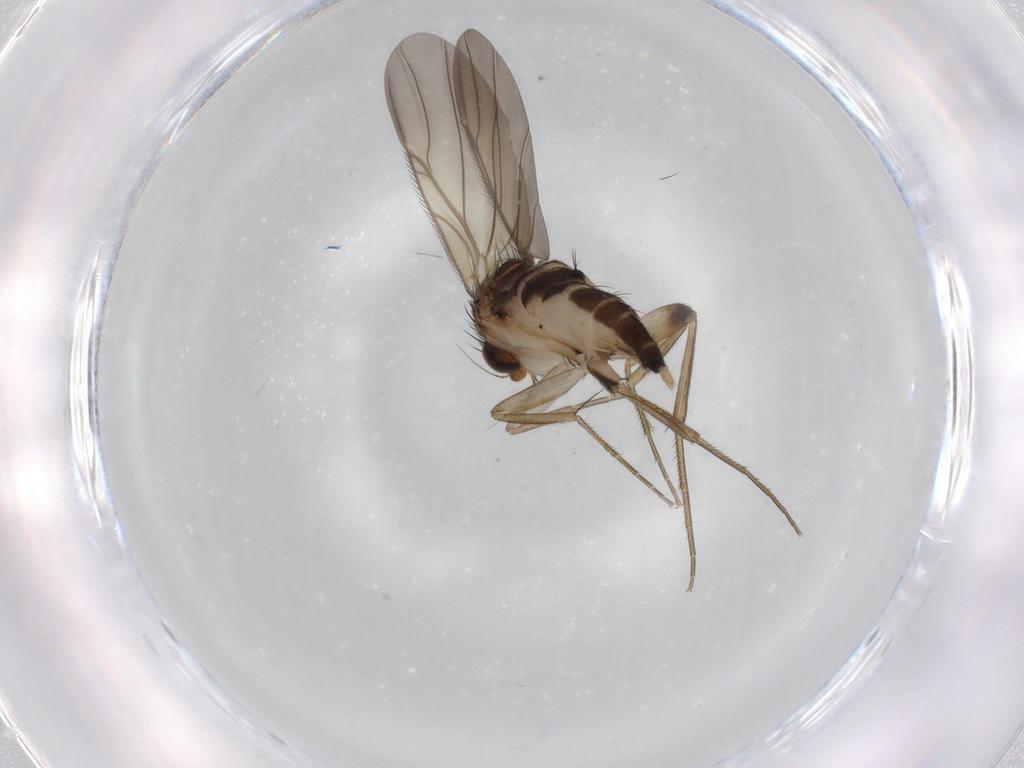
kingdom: Animalia
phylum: Arthropoda
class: Insecta
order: Diptera
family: Phoridae
